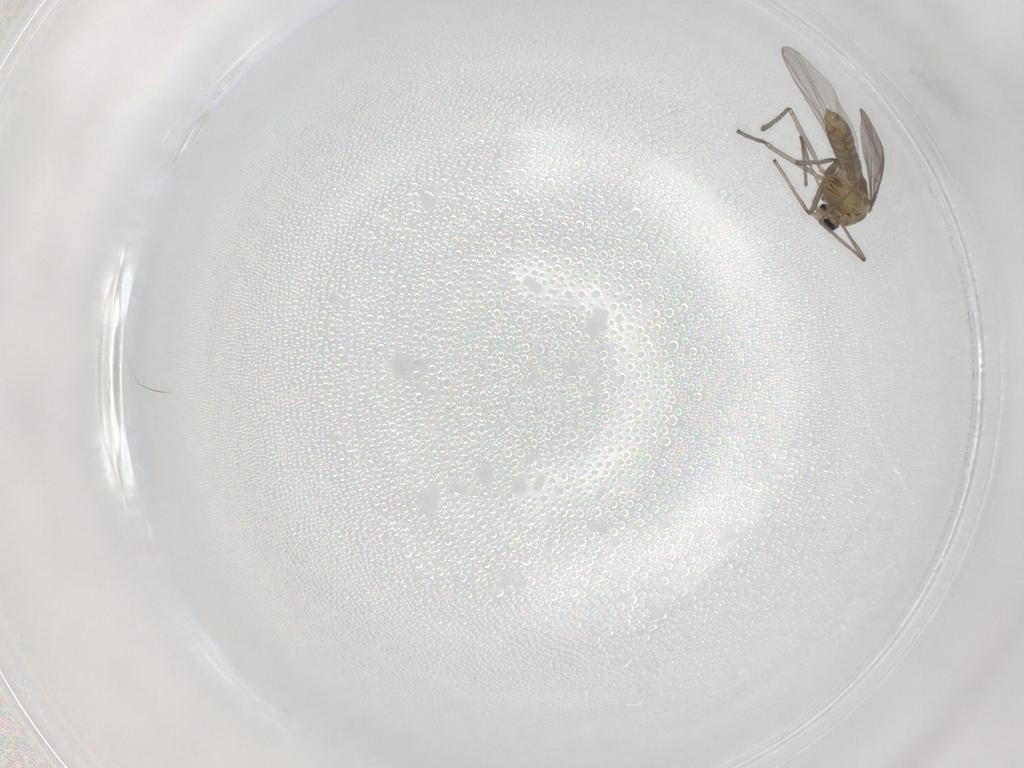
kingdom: Animalia
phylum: Arthropoda
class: Insecta
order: Diptera
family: Chironomidae
